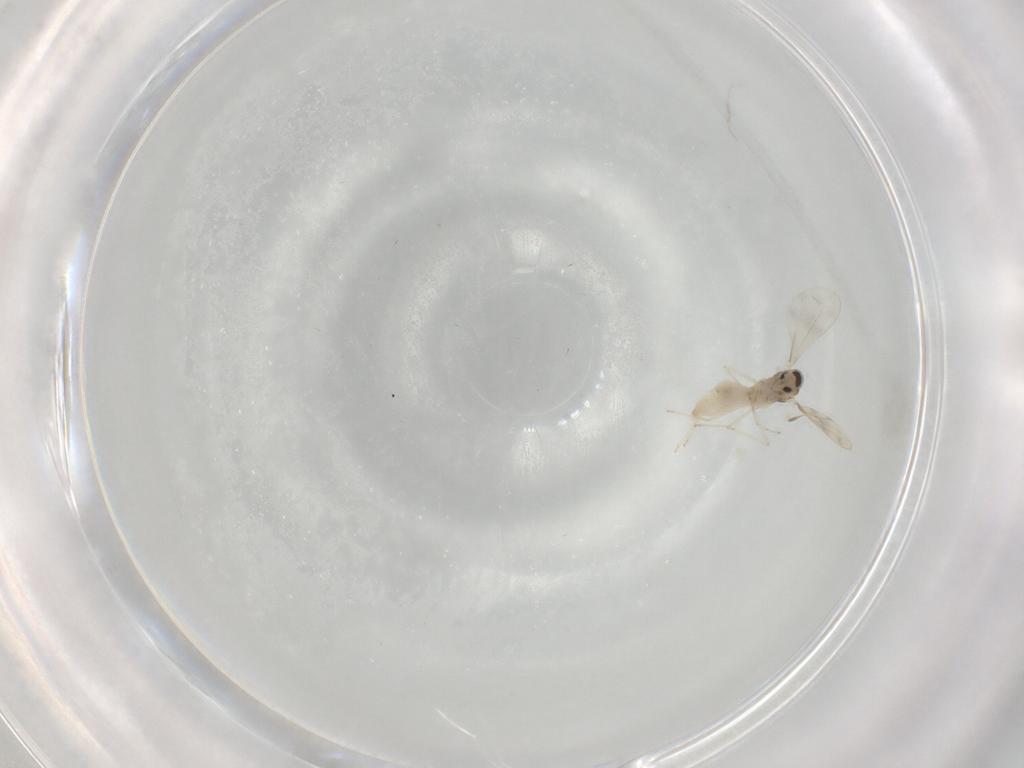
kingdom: Animalia
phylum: Arthropoda
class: Insecta
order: Diptera
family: Cecidomyiidae
